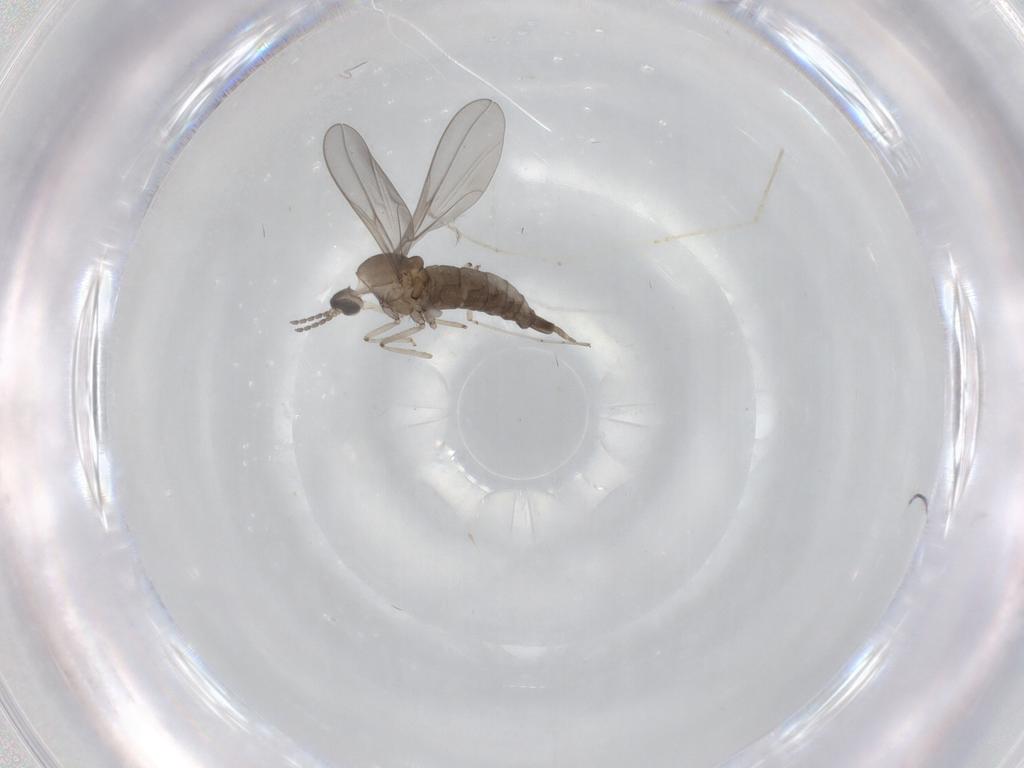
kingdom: Animalia
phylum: Arthropoda
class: Insecta
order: Diptera
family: Cecidomyiidae
